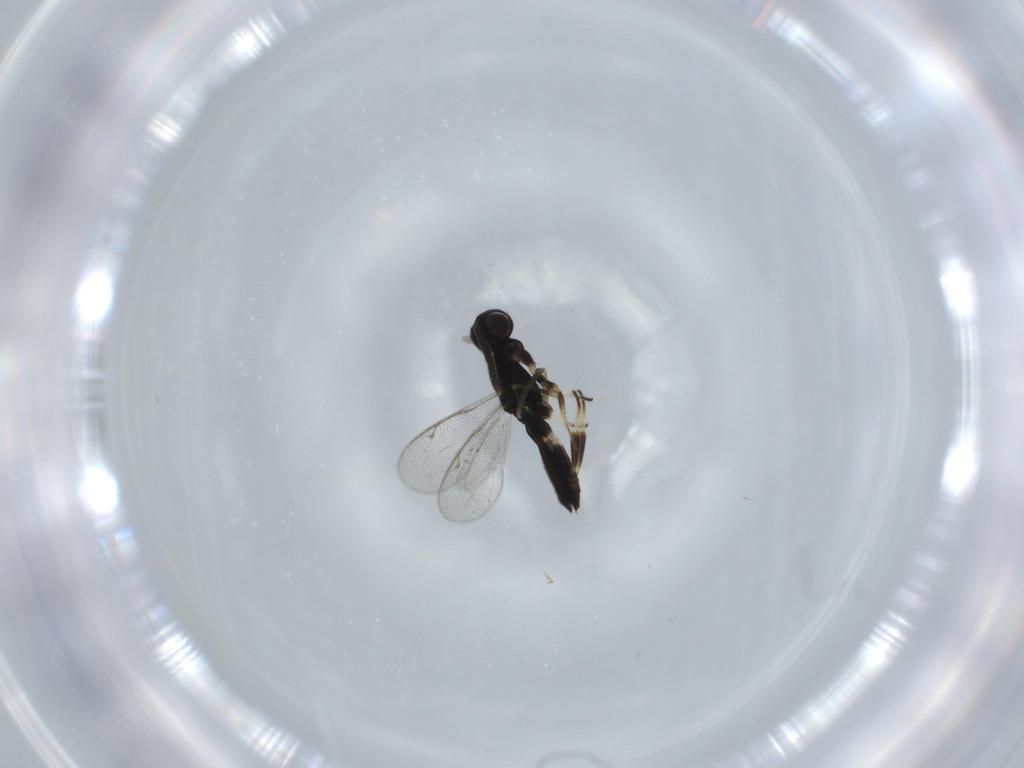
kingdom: Animalia
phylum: Arthropoda
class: Insecta
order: Hymenoptera
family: Eupelmidae
